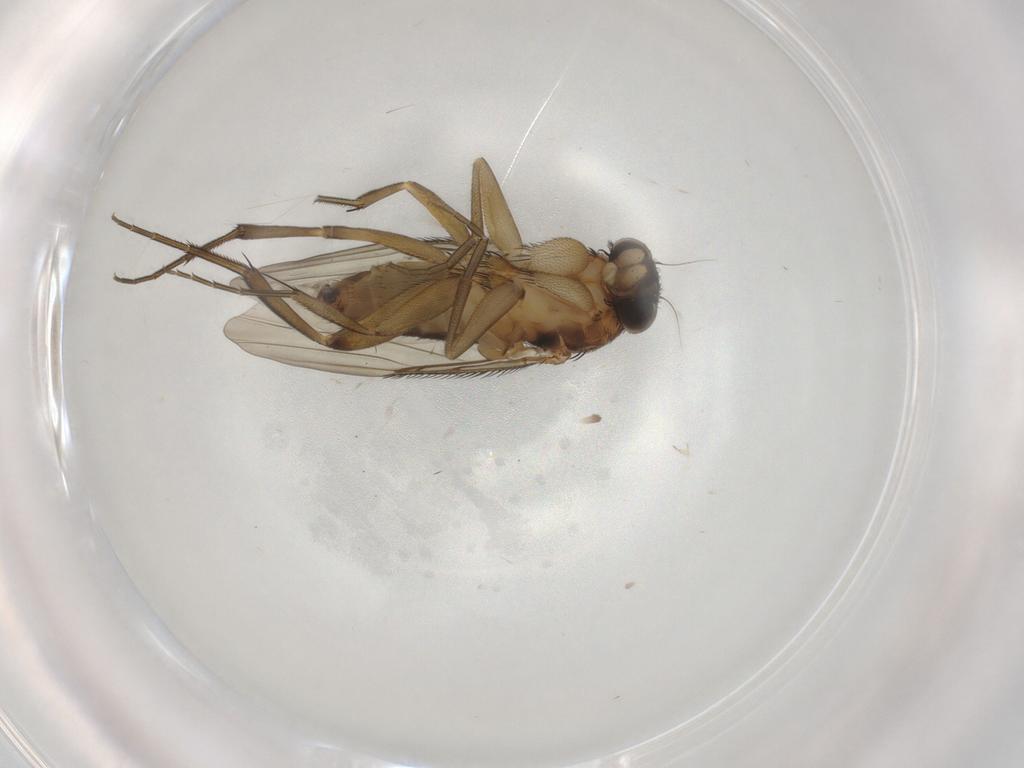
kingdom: Animalia
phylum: Arthropoda
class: Insecta
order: Diptera
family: Phoridae
